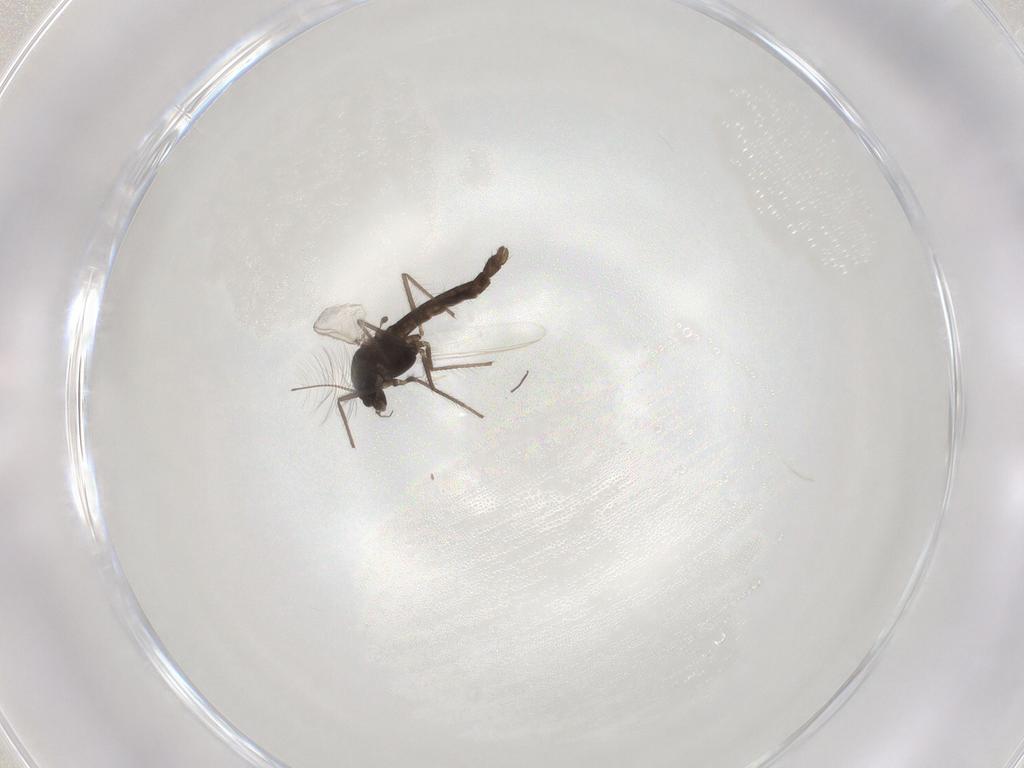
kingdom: Animalia
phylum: Arthropoda
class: Insecta
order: Diptera
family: Chironomidae
